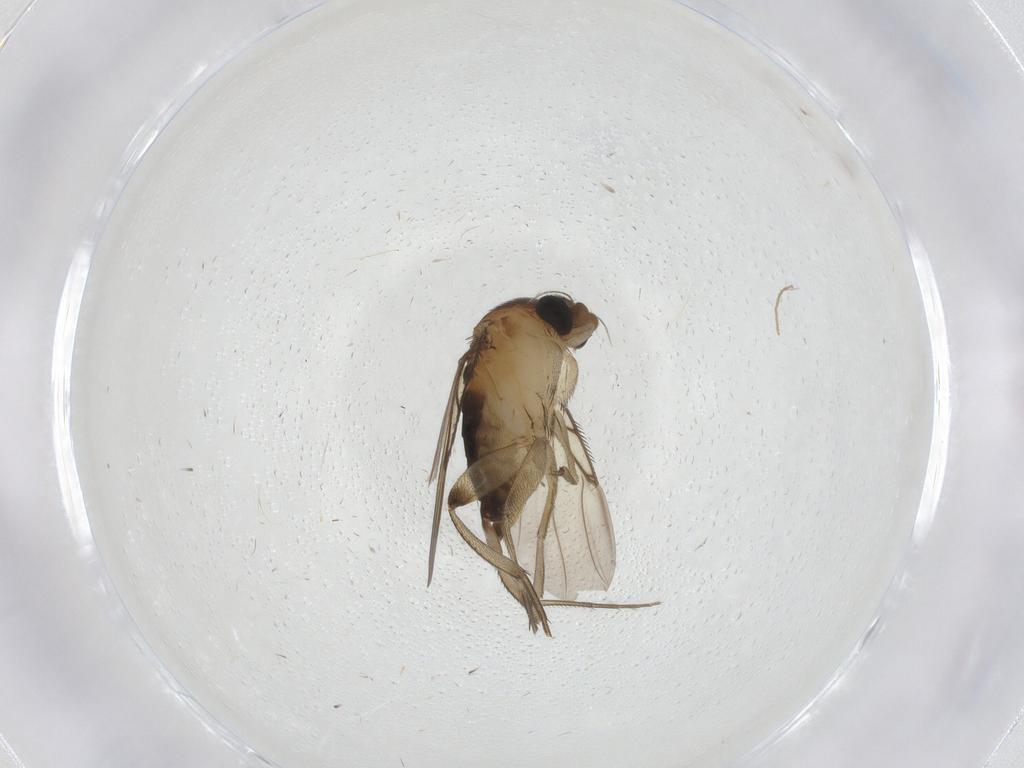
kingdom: Animalia
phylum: Arthropoda
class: Insecta
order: Diptera
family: Phoridae
